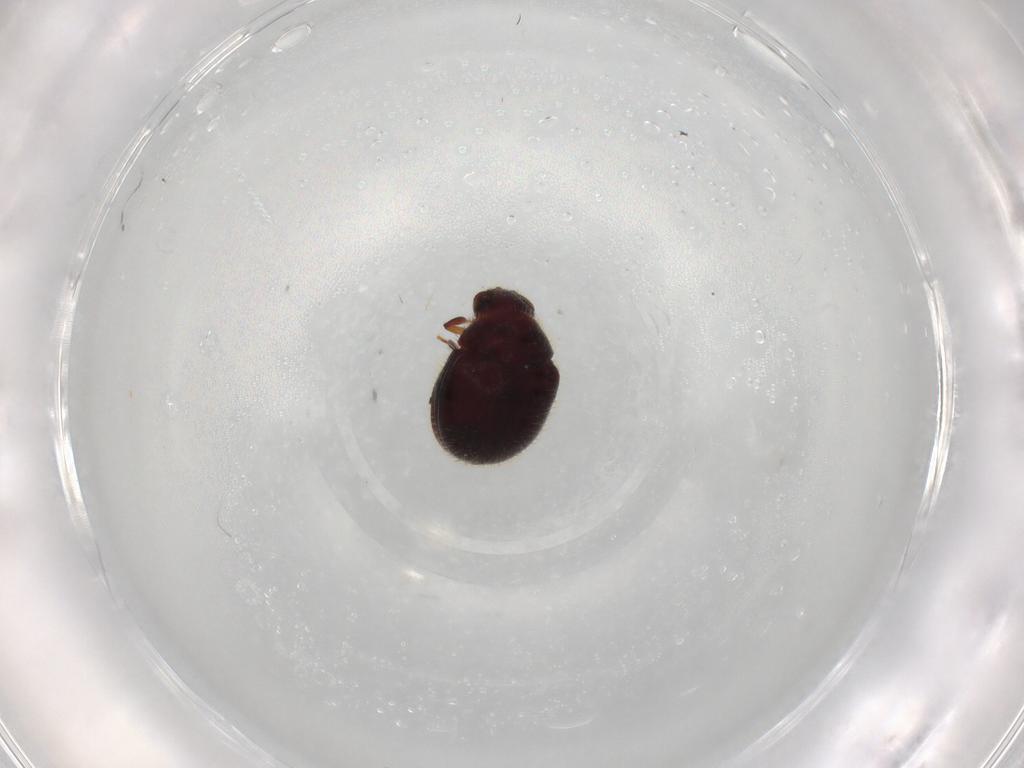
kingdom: Animalia
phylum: Arthropoda
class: Insecta
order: Coleoptera
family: Ptinidae
